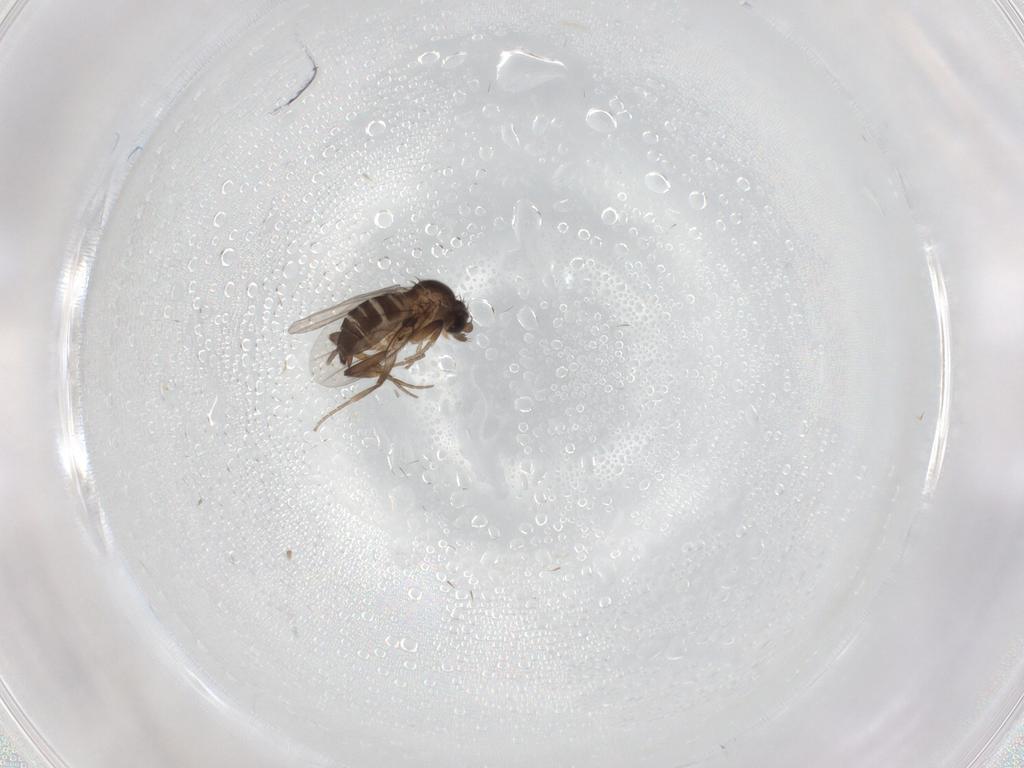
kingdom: Animalia
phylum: Arthropoda
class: Insecta
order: Diptera
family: Phoridae
